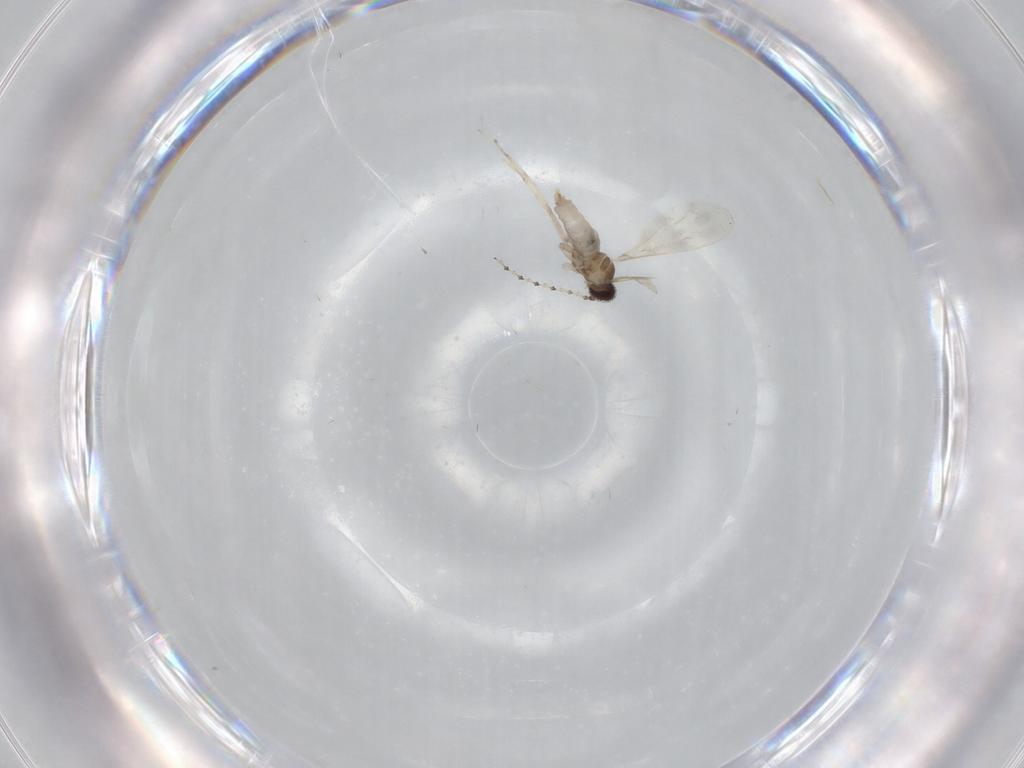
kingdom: Animalia
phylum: Arthropoda
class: Insecta
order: Diptera
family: Cecidomyiidae
